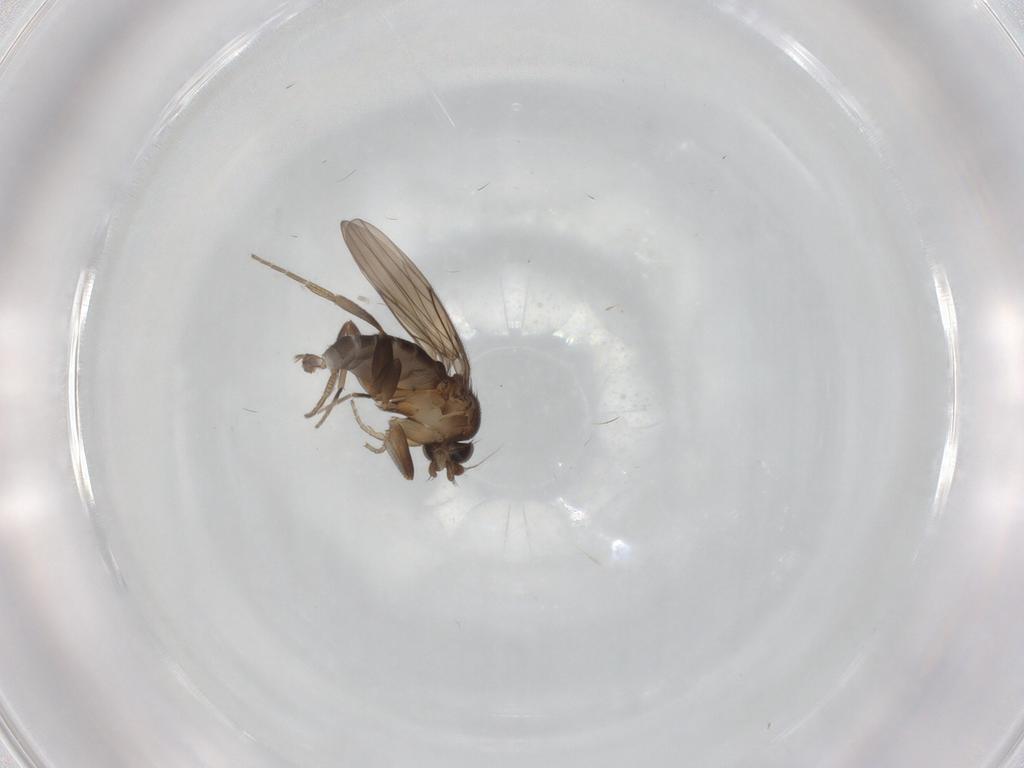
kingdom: Animalia
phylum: Arthropoda
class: Insecta
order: Diptera
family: Phoridae
